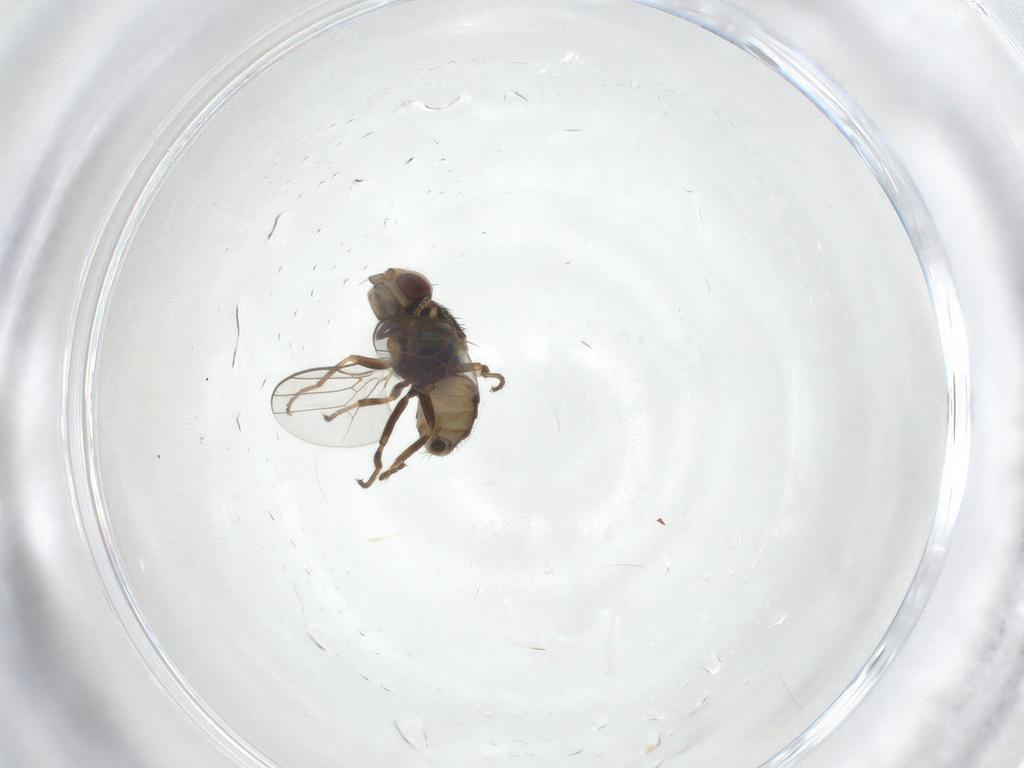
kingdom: Animalia
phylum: Arthropoda
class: Insecta
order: Diptera
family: Chloropidae
